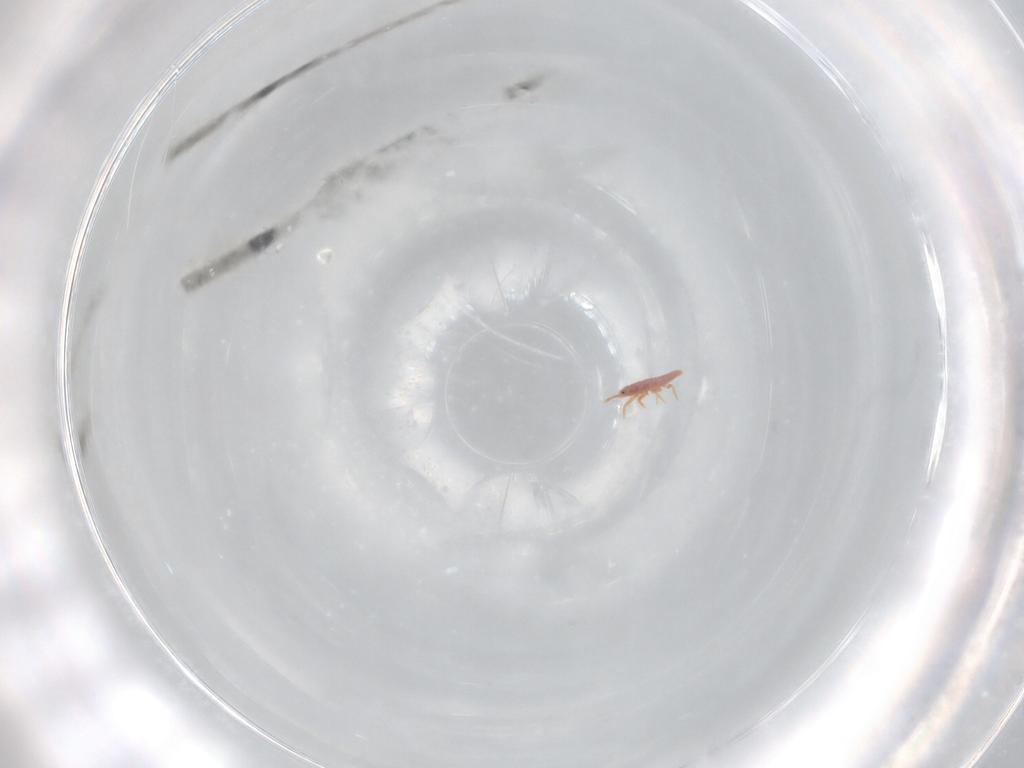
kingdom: Animalia
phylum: Arthropoda
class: Insecta
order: Hemiptera
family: Anthocoridae
